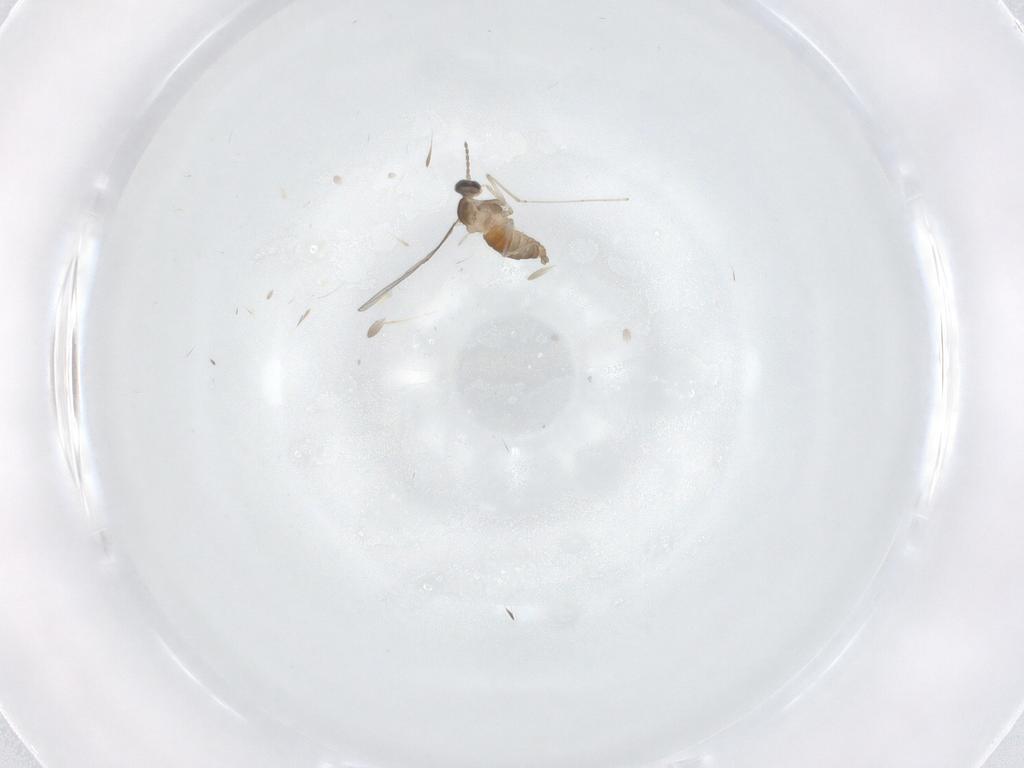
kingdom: Animalia
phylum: Arthropoda
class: Insecta
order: Diptera
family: Cecidomyiidae
